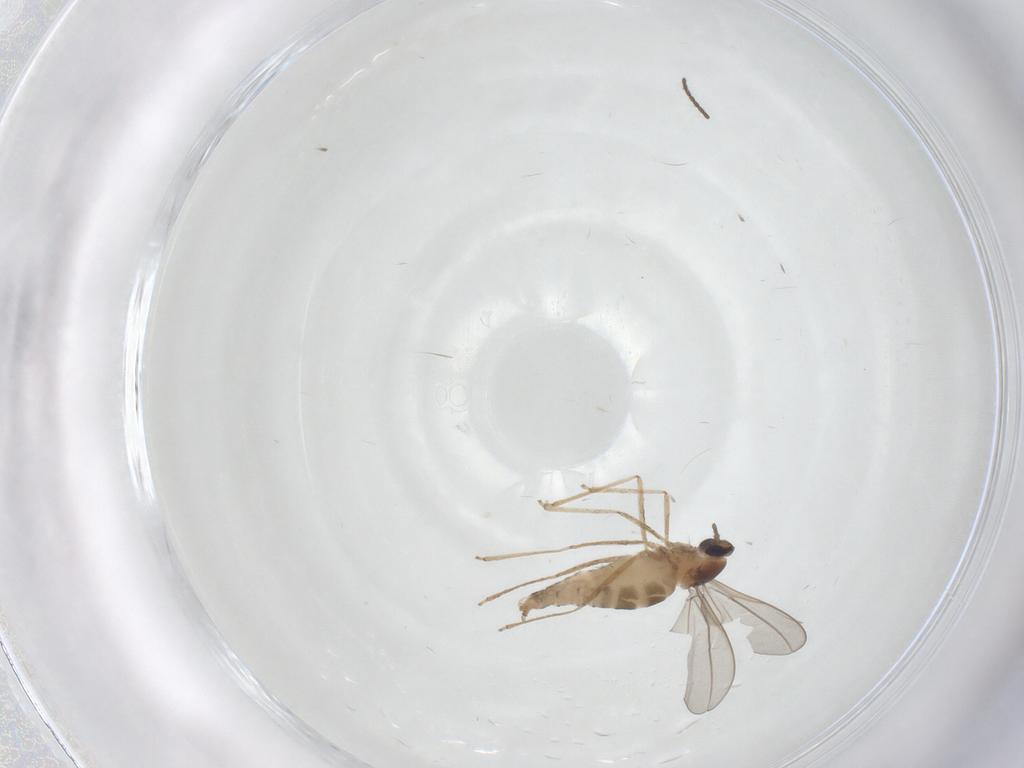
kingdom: Animalia
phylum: Arthropoda
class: Insecta
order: Diptera
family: Cecidomyiidae
